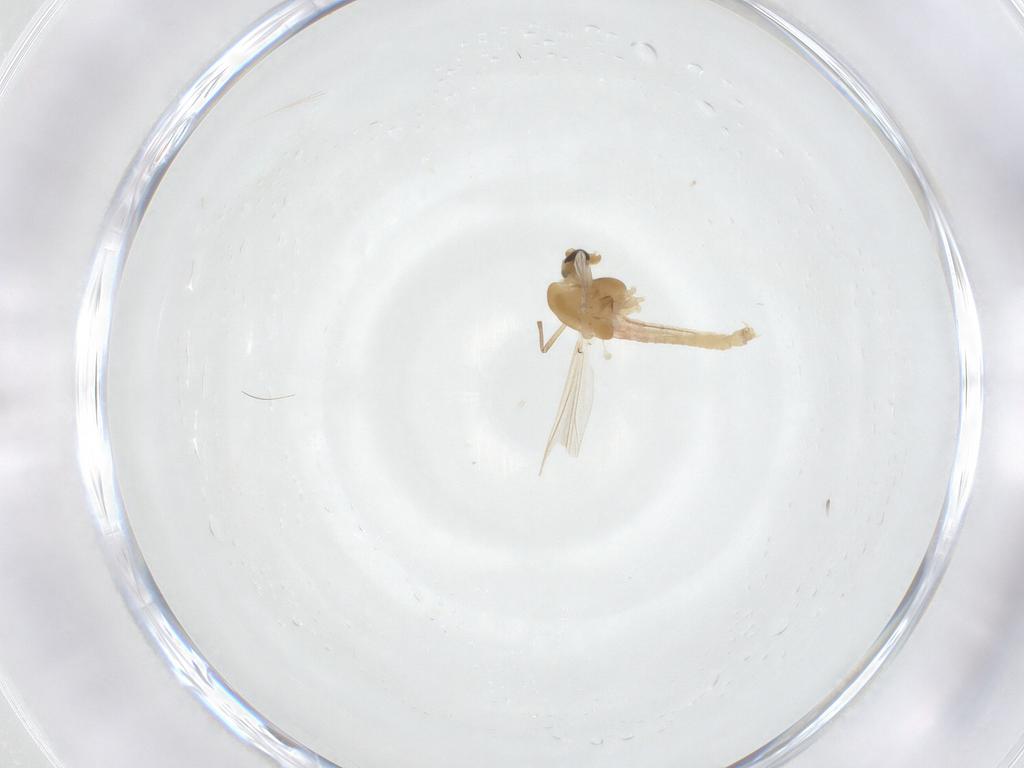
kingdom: Animalia
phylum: Arthropoda
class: Insecta
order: Diptera
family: Chironomidae
